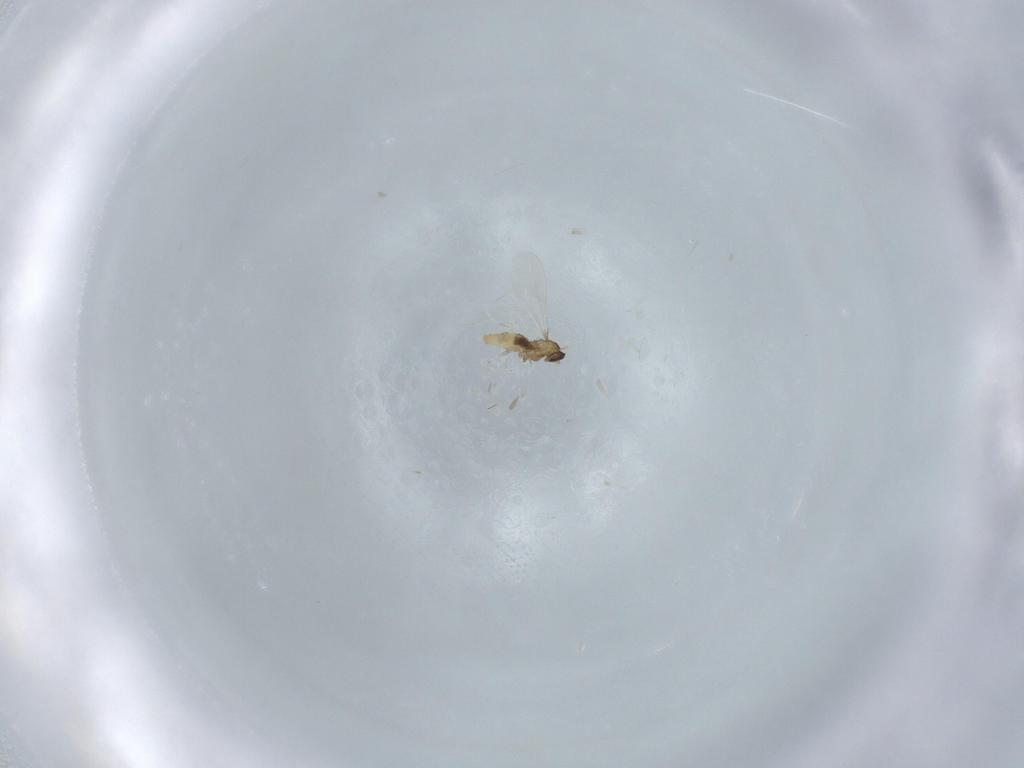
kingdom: Animalia
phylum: Arthropoda
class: Insecta
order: Diptera
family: Cecidomyiidae
